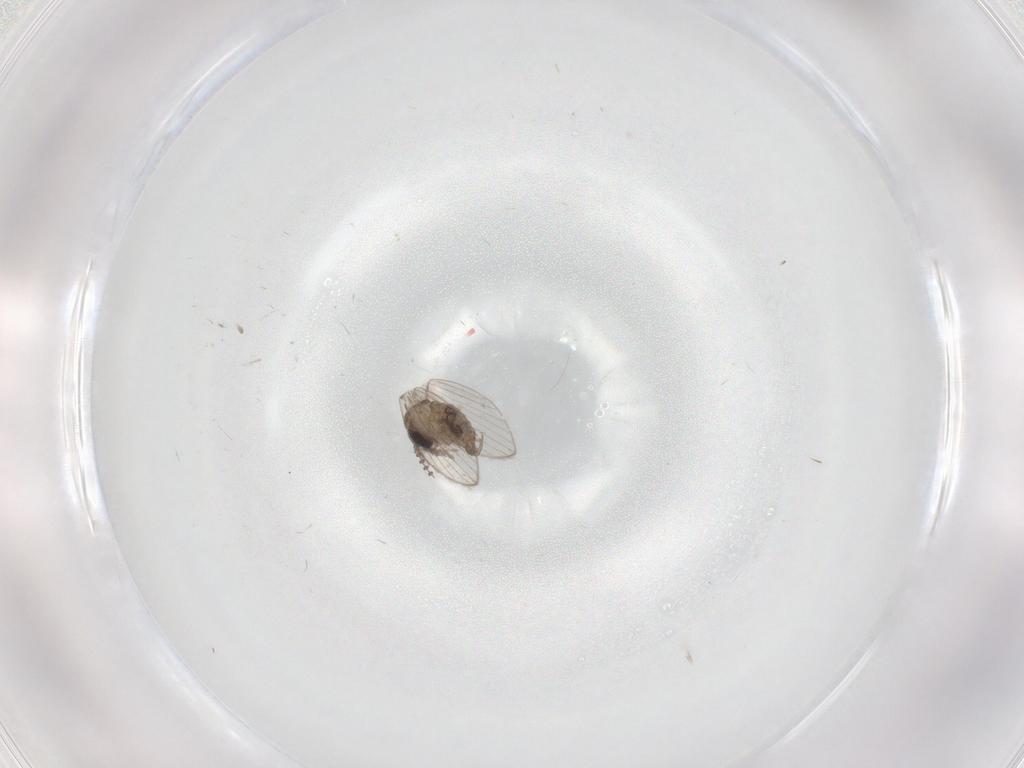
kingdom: Animalia
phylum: Arthropoda
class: Insecta
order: Diptera
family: Psychodidae
